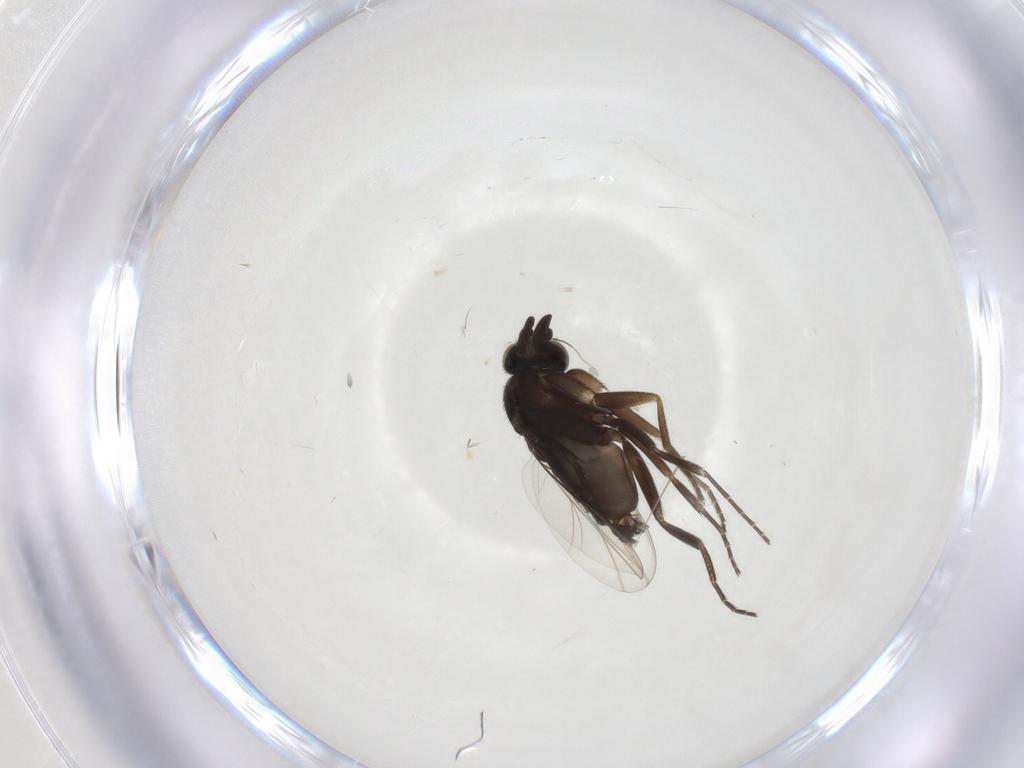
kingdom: Animalia
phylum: Arthropoda
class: Insecta
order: Diptera
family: Phoridae
